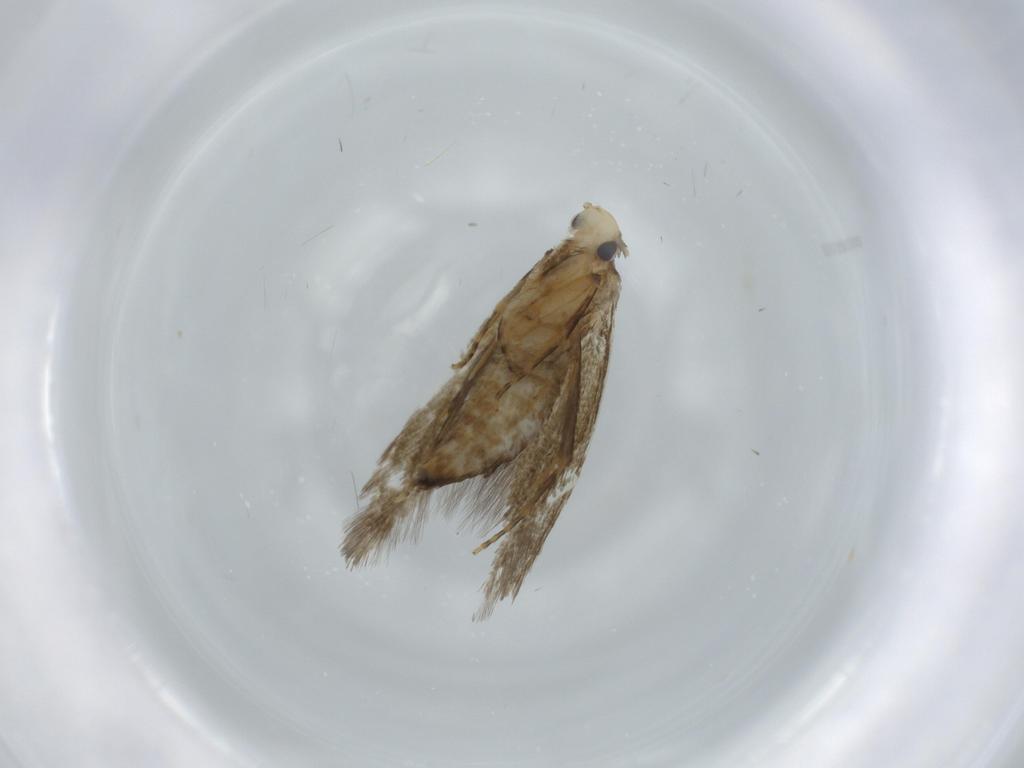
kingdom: Animalia
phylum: Arthropoda
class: Insecta
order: Lepidoptera
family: Tineidae
